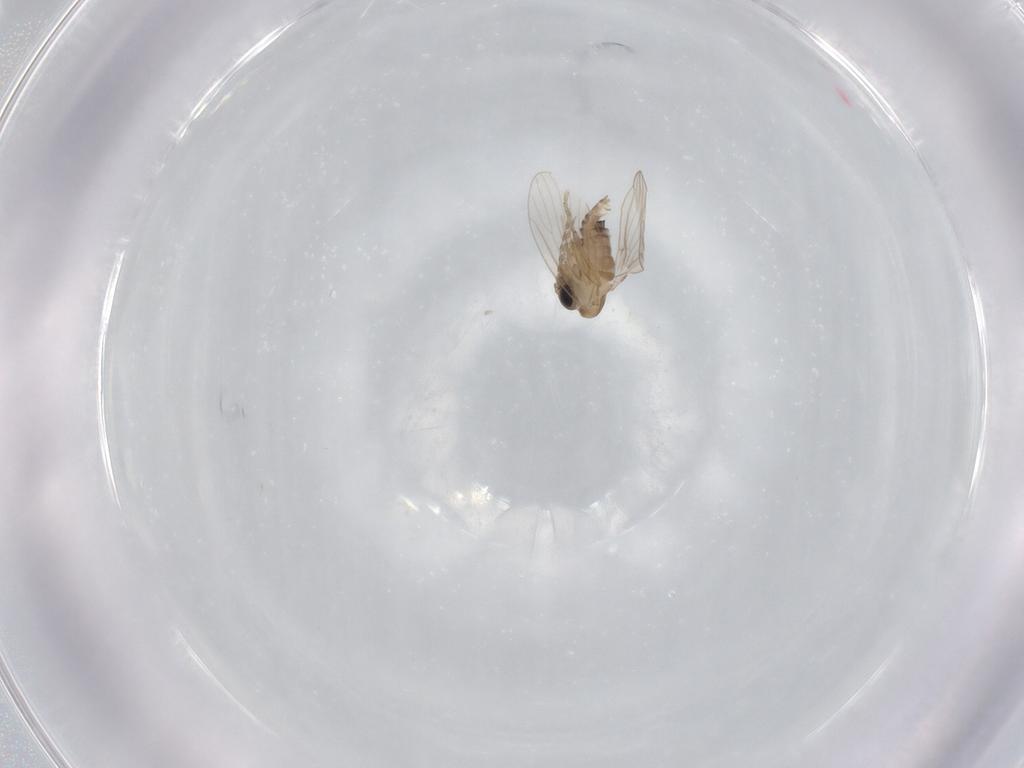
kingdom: Animalia
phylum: Arthropoda
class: Insecta
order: Diptera
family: Psychodidae
